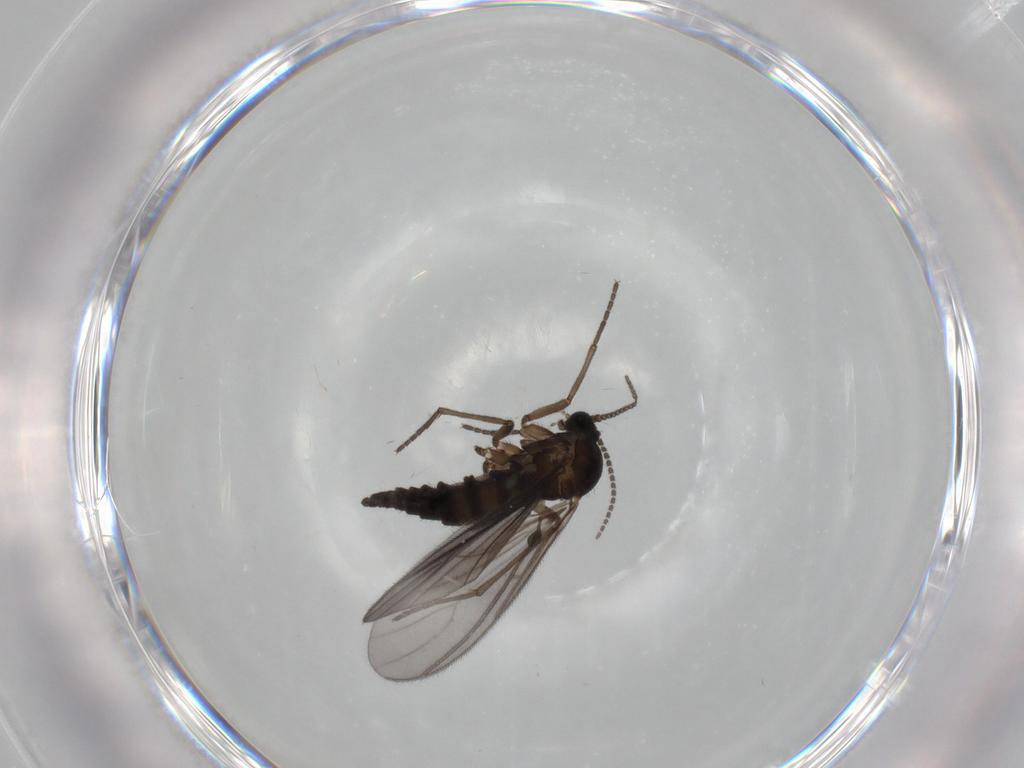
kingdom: Animalia
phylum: Arthropoda
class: Insecta
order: Diptera
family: Sciaridae
